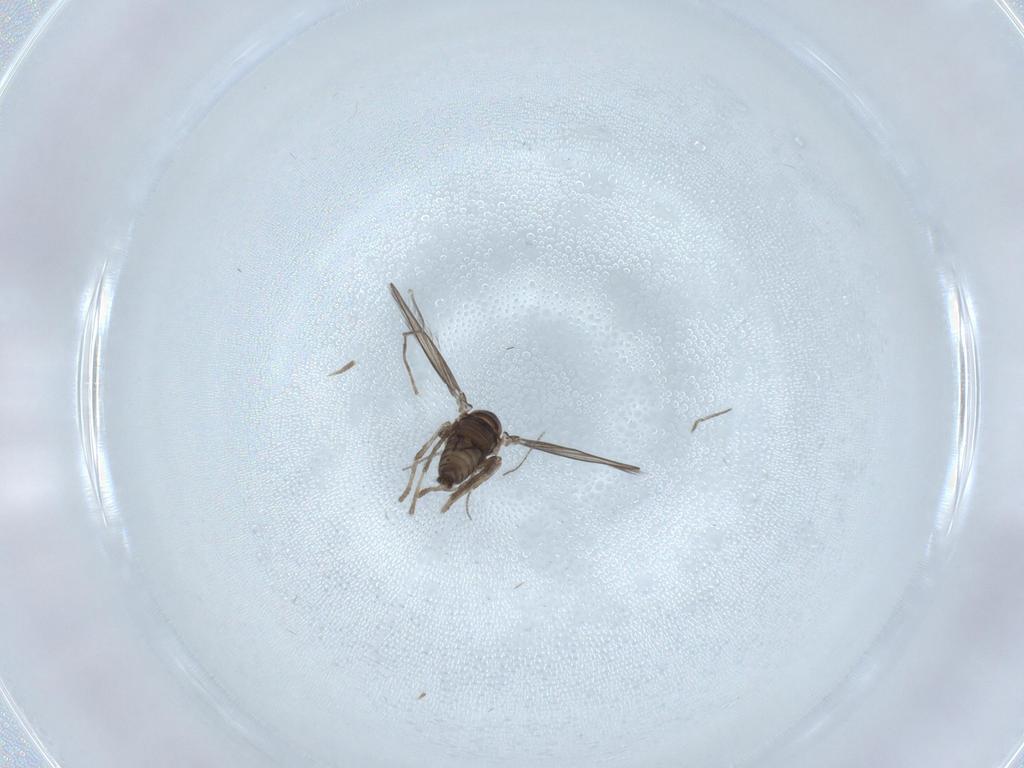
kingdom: Animalia
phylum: Arthropoda
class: Insecta
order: Diptera
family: Psychodidae
